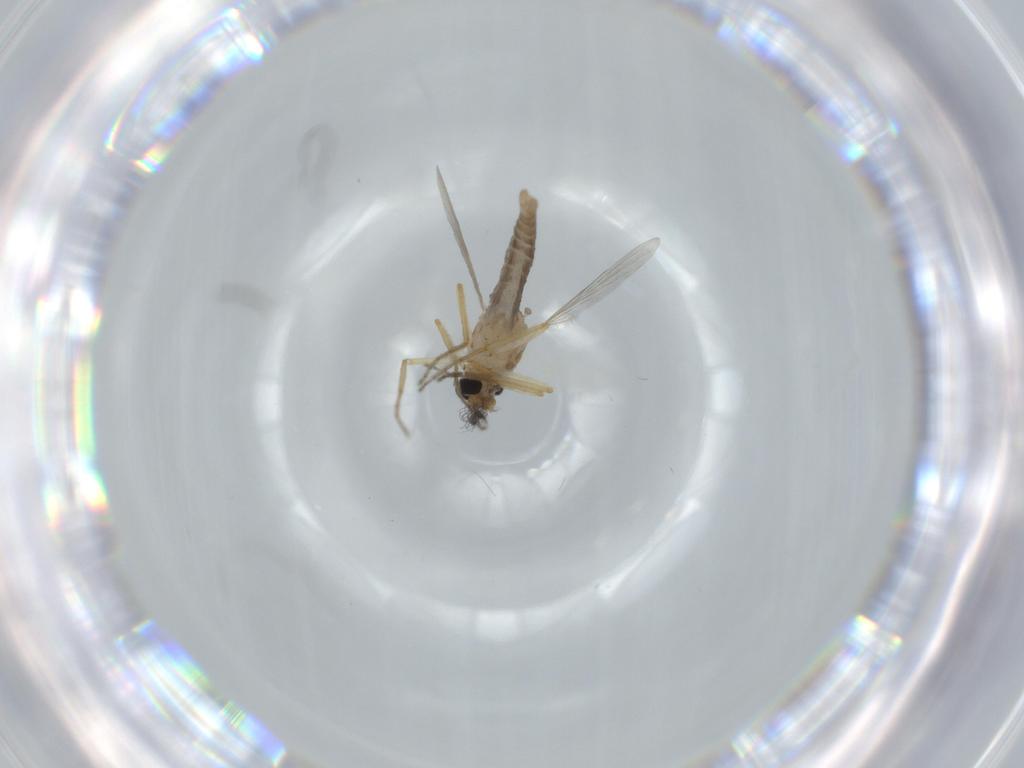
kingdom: Animalia
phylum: Arthropoda
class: Insecta
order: Diptera
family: Ceratopogonidae
